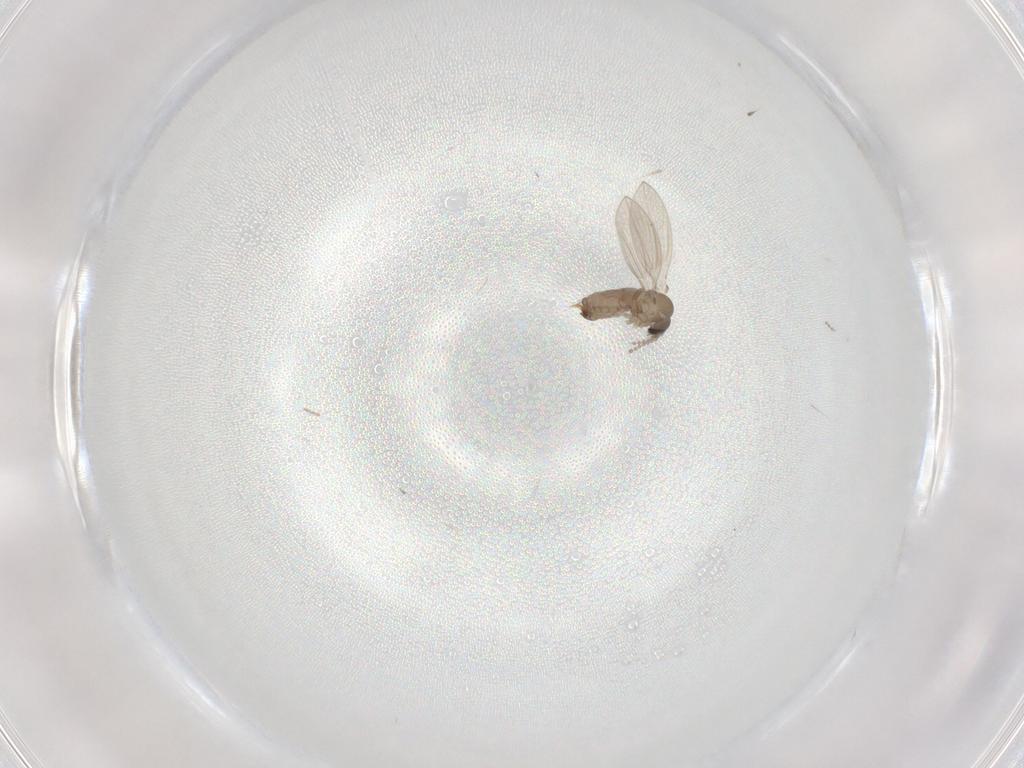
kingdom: Animalia
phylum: Arthropoda
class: Insecta
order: Diptera
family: Psychodidae
